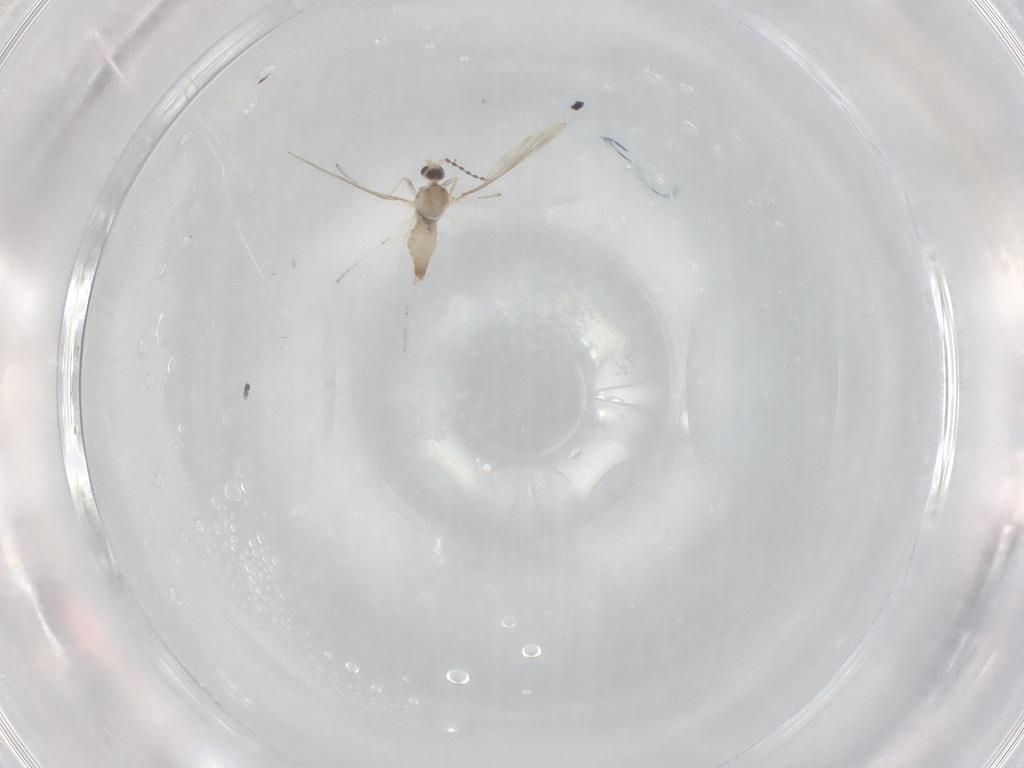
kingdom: Animalia
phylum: Arthropoda
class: Insecta
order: Diptera
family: Cecidomyiidae
